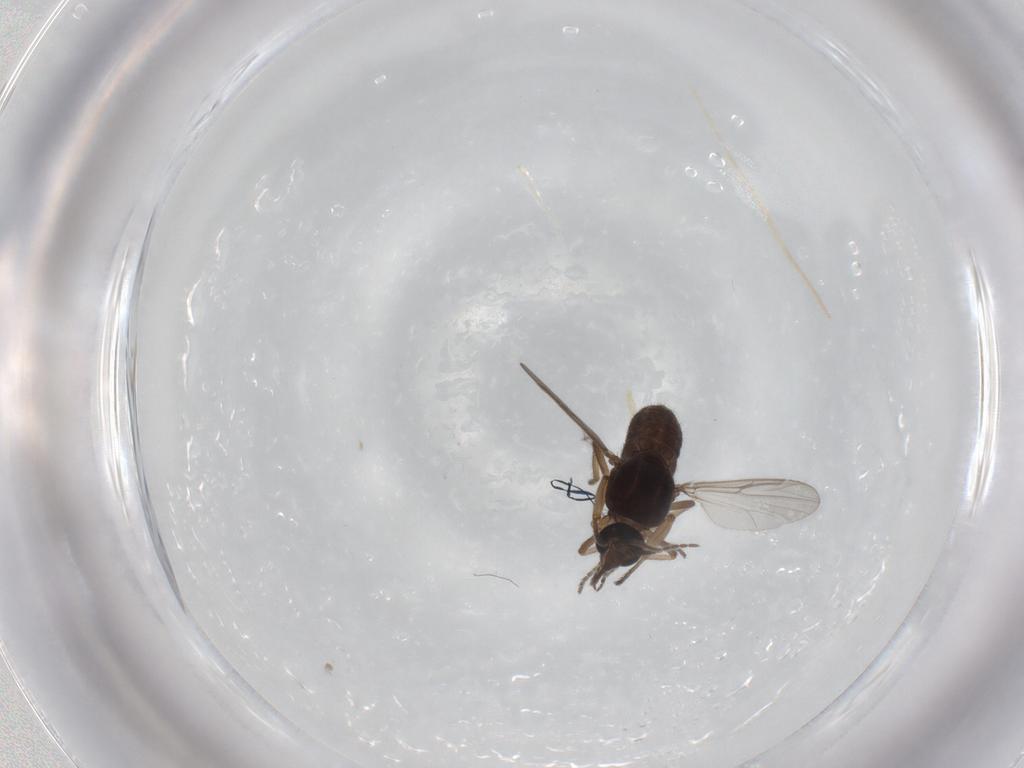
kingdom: Animalia
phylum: Arthropoda
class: Insecta
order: Diptera
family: Ceratopogonidae
